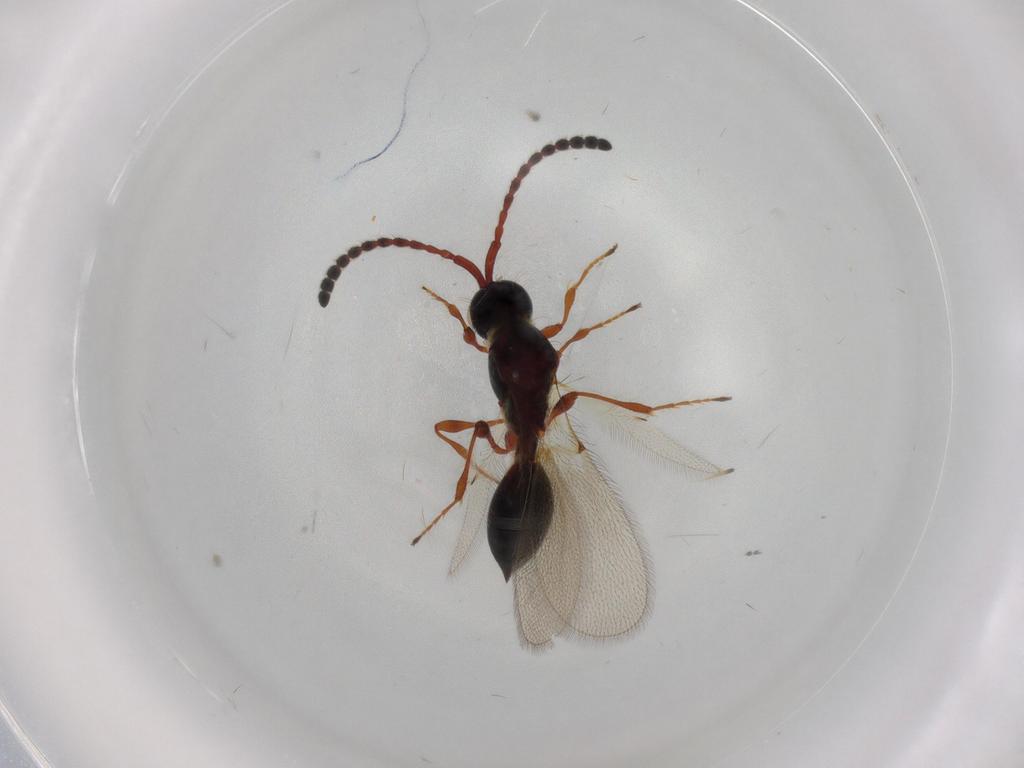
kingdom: Animalia
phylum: Arthropoda
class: Insecta
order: Hymenoptera
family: Diapriidae
